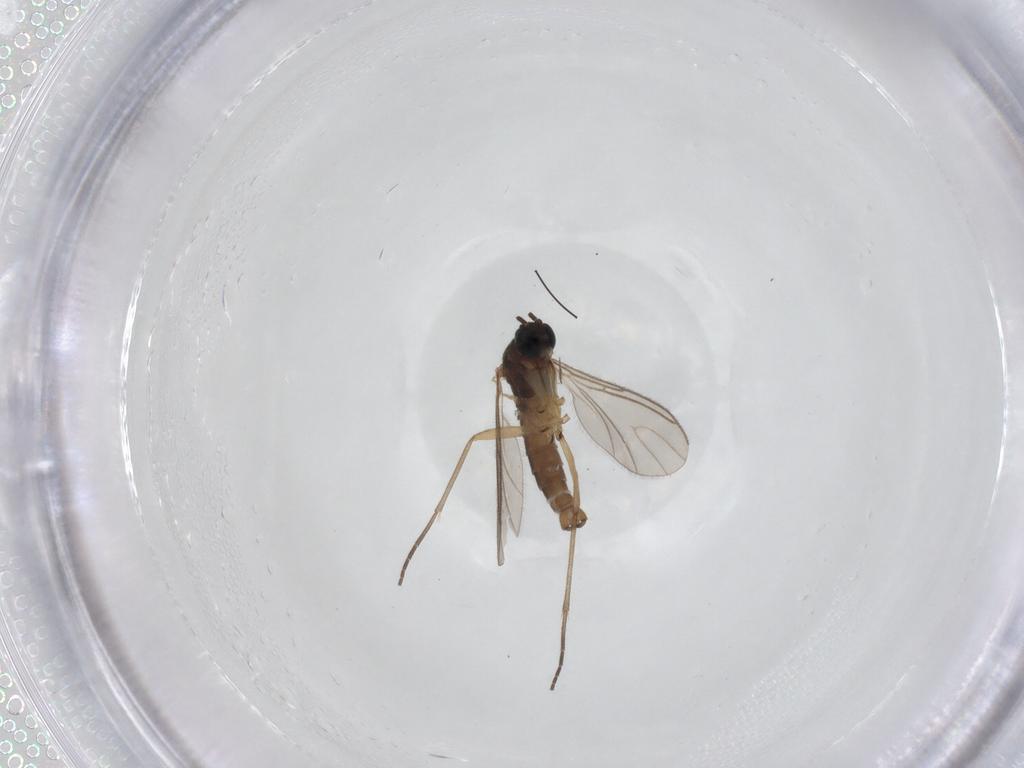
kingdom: Animalia
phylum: Arthropoda
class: Insecta
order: Diptera
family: Sciaridae
